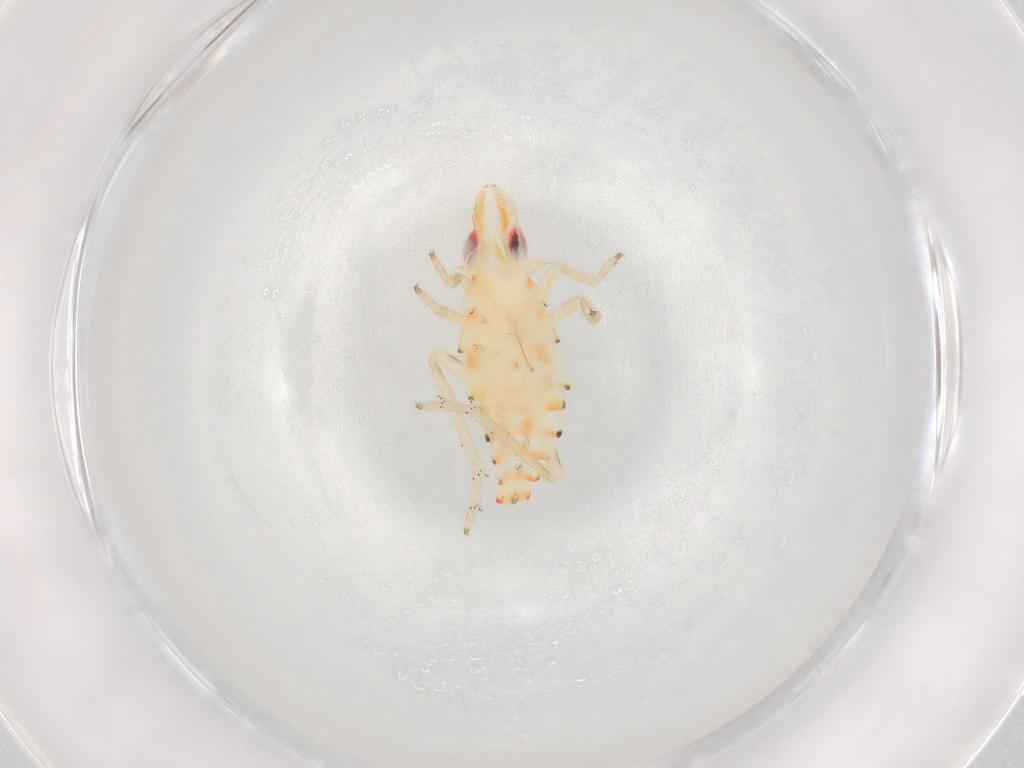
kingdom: Animalia
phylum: Arthropoda
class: Insecta
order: Hemiptera
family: Tropiduchidae
